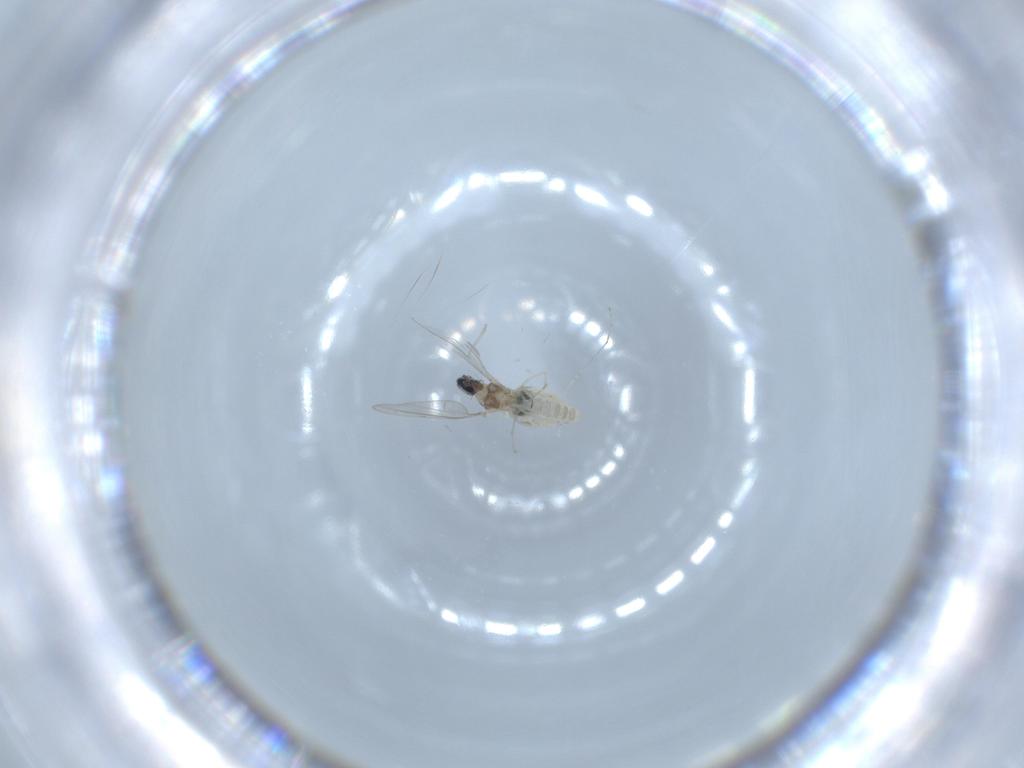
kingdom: Animalia
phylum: Arthropoda
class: Insecta
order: Diptera
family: Cecidomyiidae
